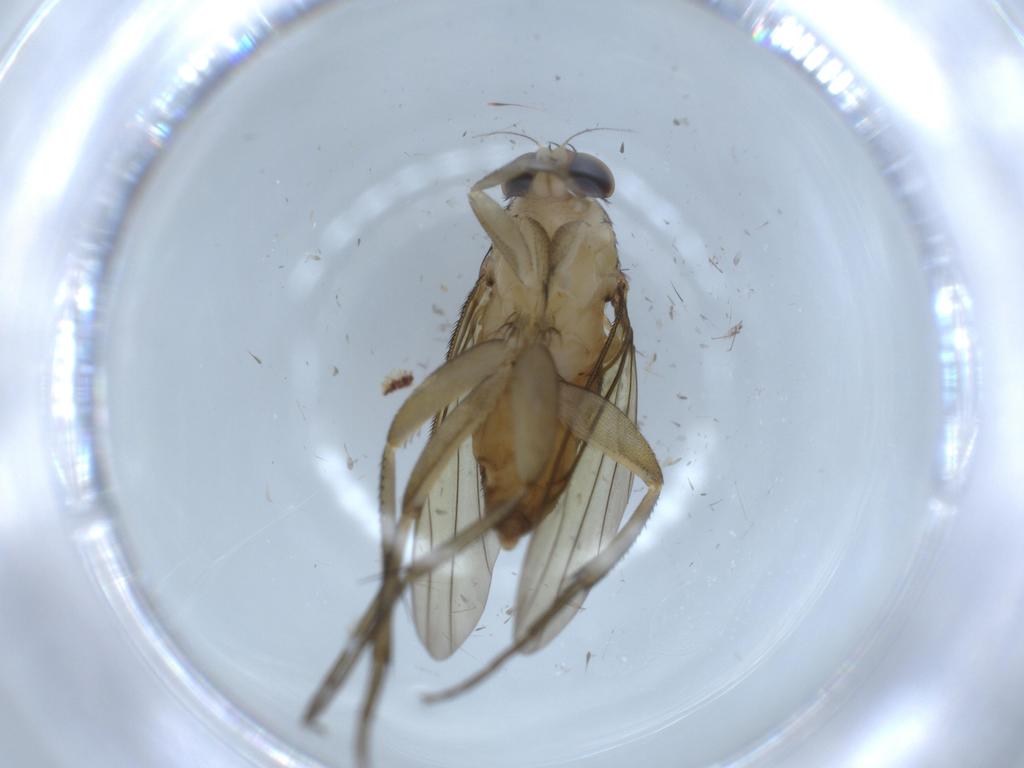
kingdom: Animalia
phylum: Arthropoda
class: Insecta
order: Diptera
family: Phoridae
